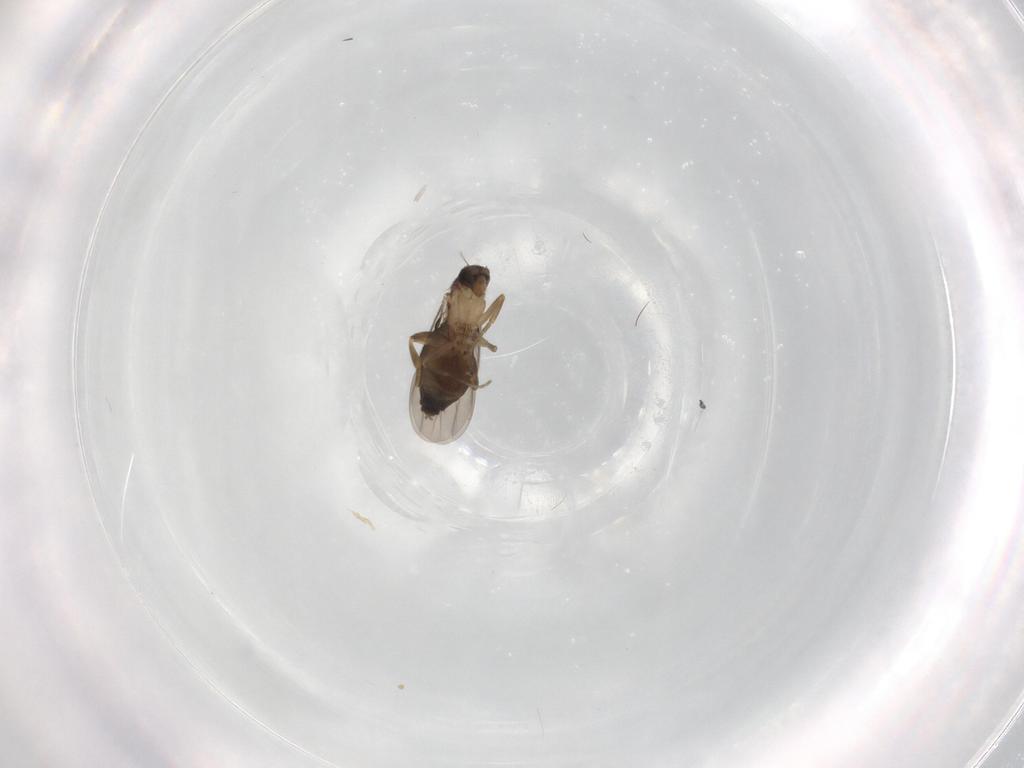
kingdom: Animalia
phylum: Arthropoda
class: Insecta
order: Diptera
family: Phoridae
